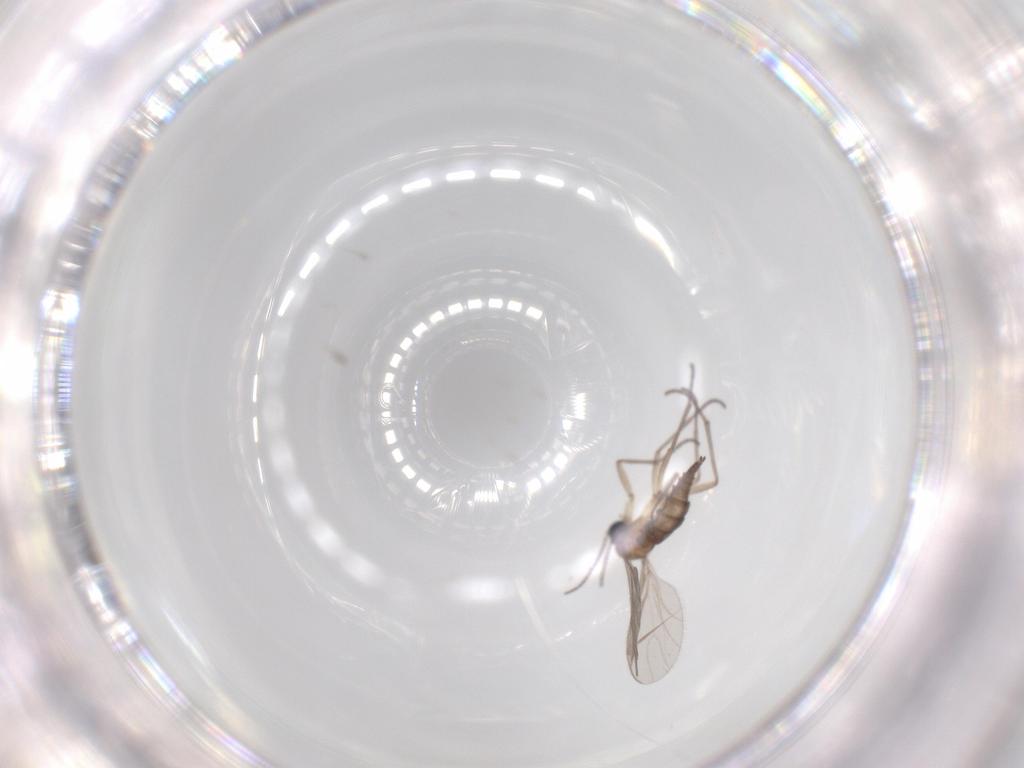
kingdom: Animalia
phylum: Arthropoda
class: Insecta
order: Diptera
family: Sciaridae
